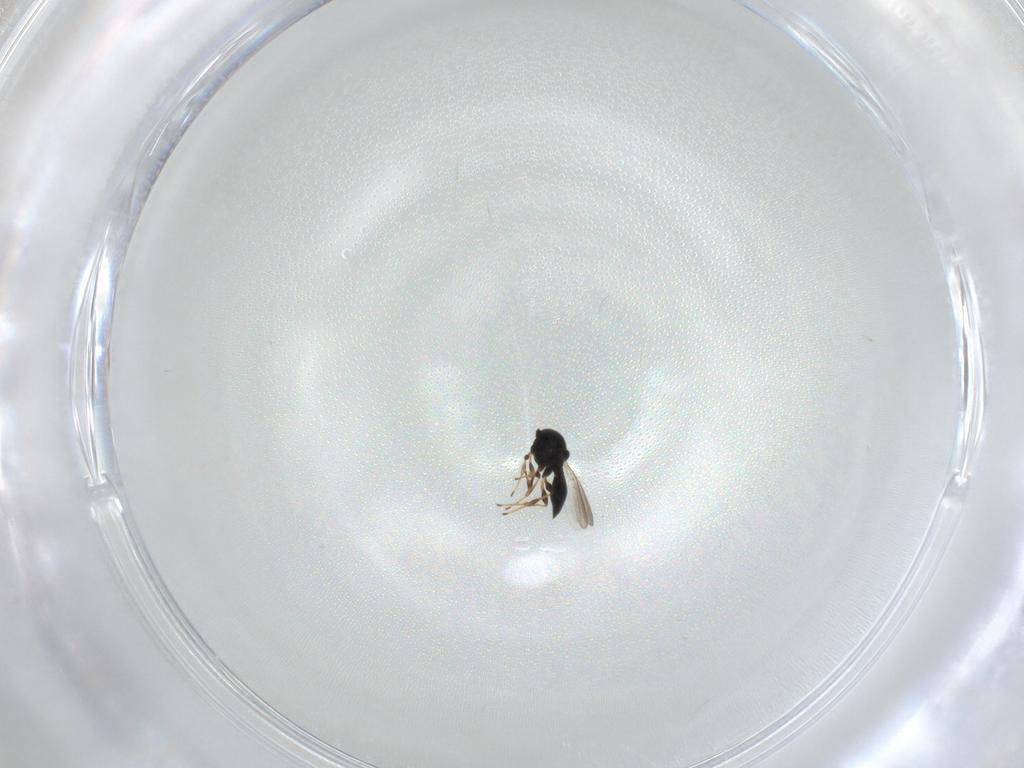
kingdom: Animalia
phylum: Arthropoda
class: Insecta
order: Hymenoptera
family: Platygastridae
